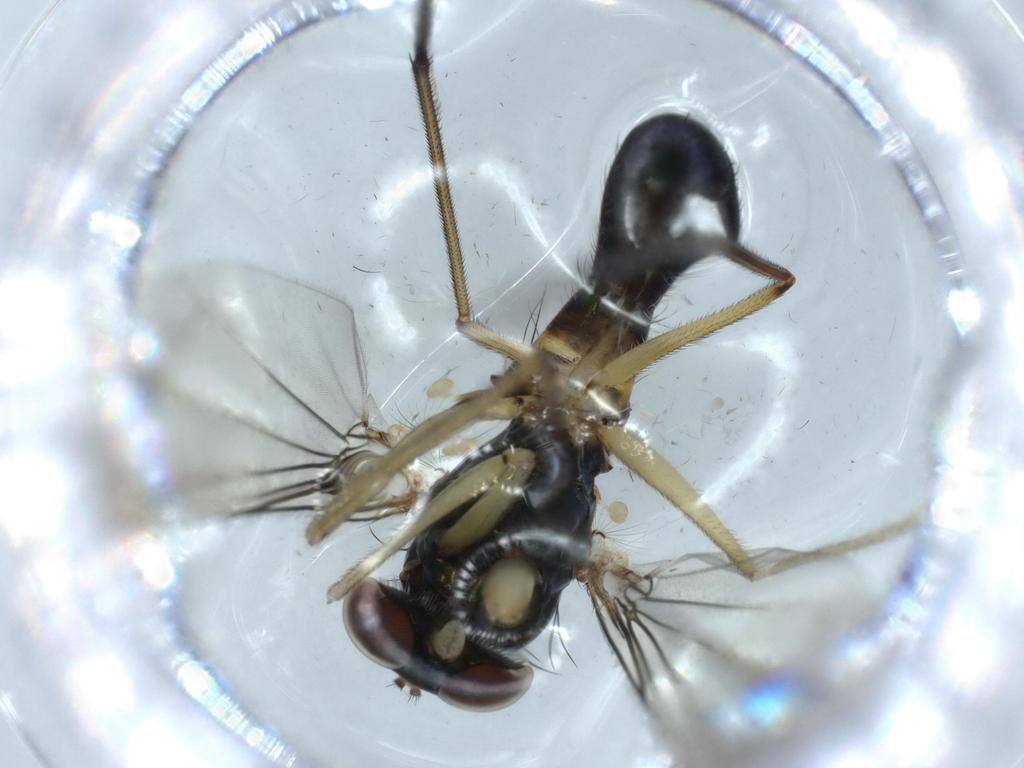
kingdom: Animalia
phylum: Arthropoda
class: Insecta
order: Diptera
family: Dolichopodidae
